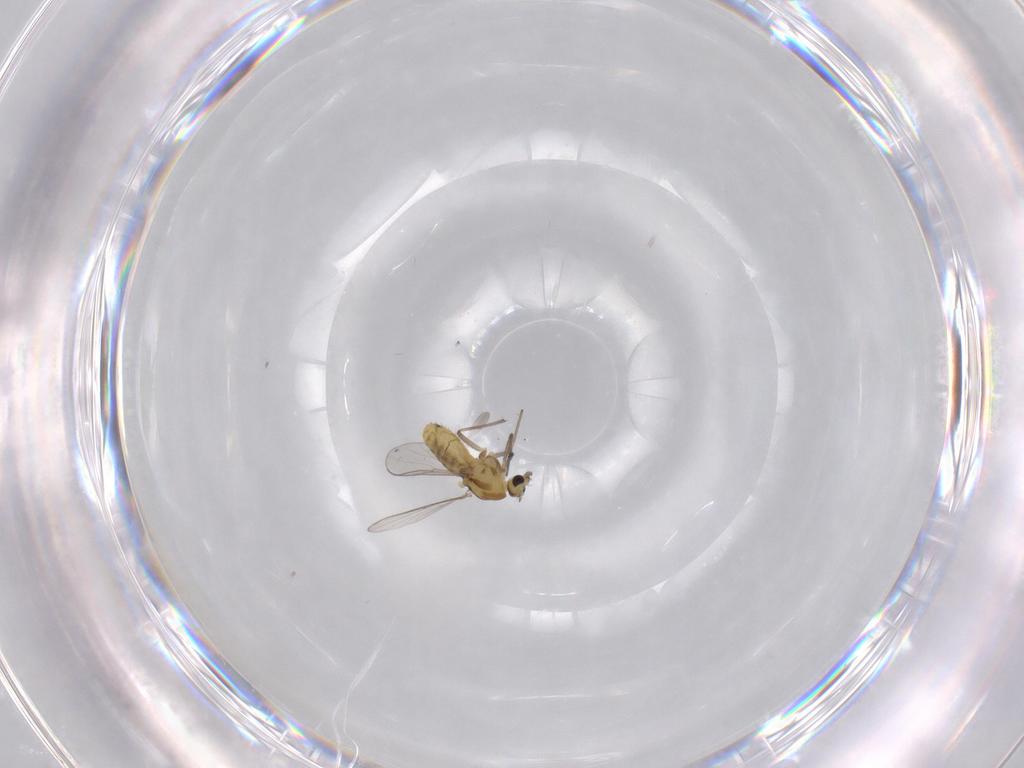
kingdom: Animalia
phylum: Arthropoda
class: Insecta
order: Diptera
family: Chironomidae
